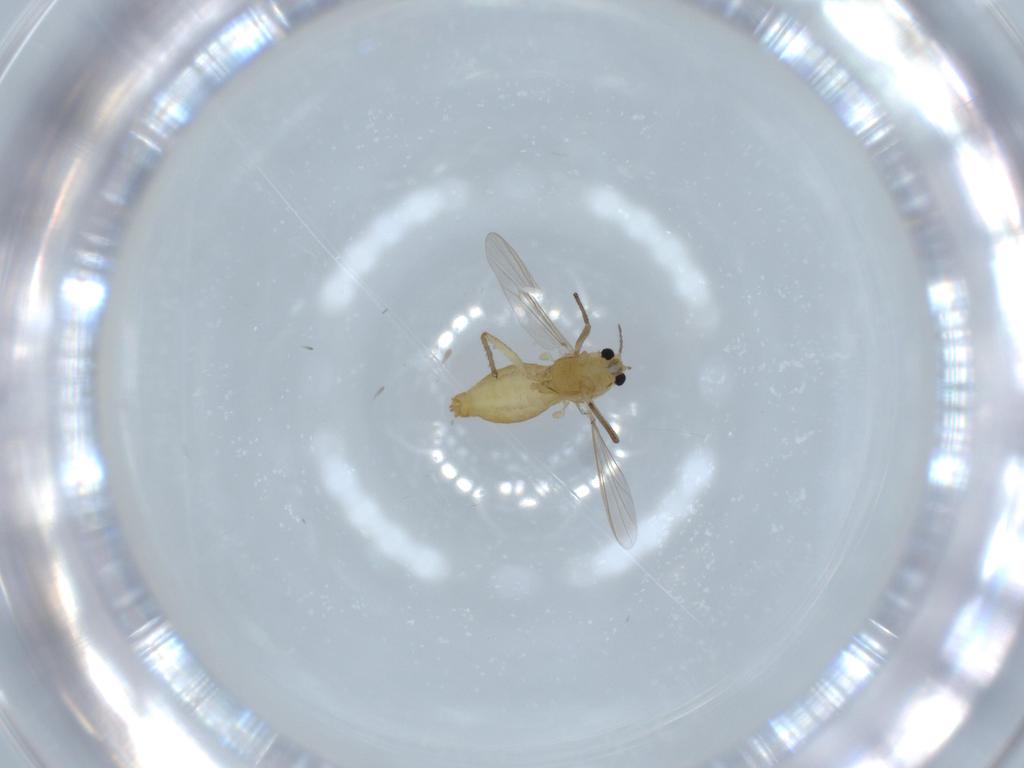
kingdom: Animalia
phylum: Arthropoda
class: Insecta
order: Diptera
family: Chironomidae
